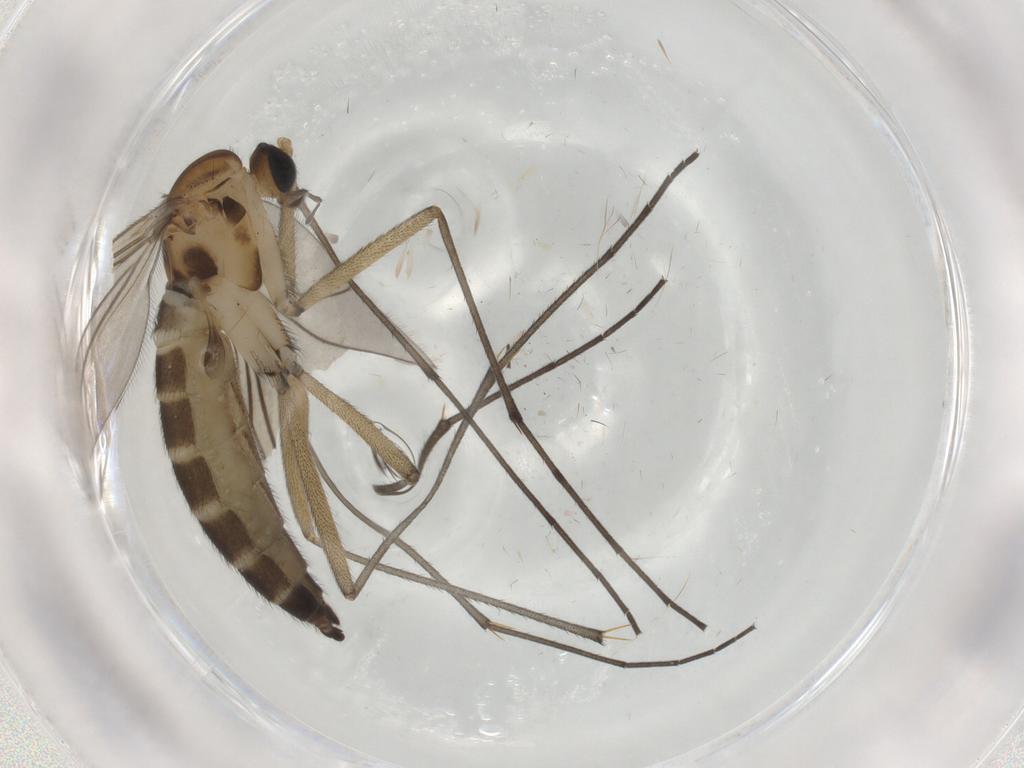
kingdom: Animalia
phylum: Arthropoda
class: Insecta
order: Diptera
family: Sciaridae
